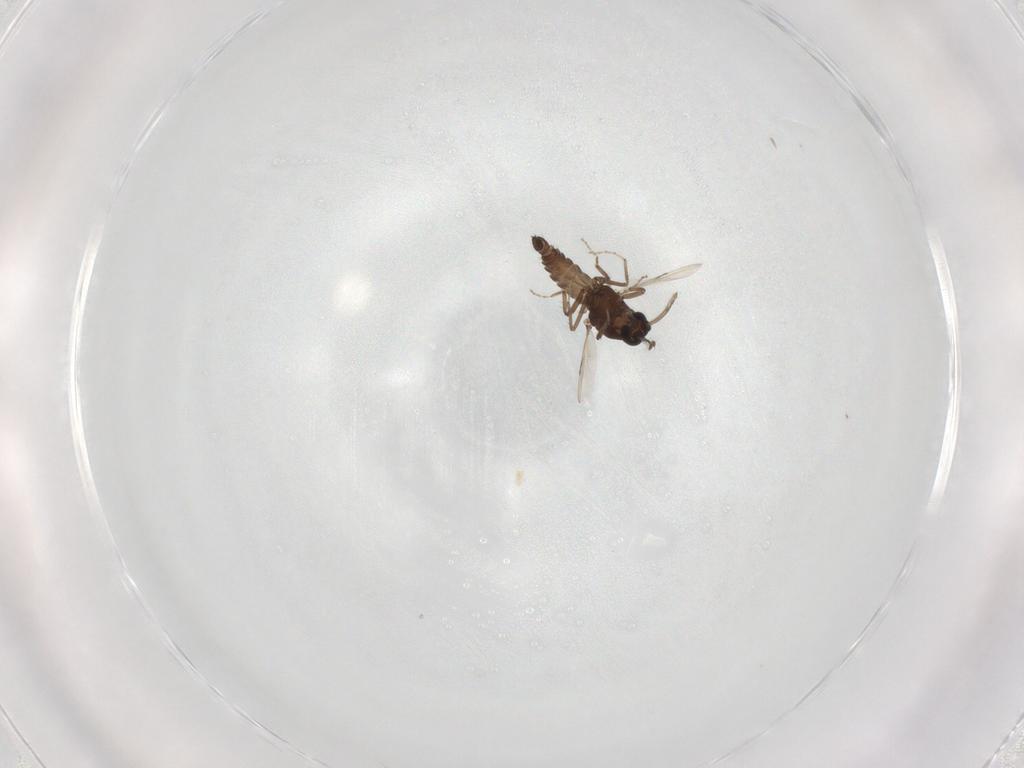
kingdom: Animalia
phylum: Arthropoda
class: Insecta
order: Diptera
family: Ceratopogonidae
